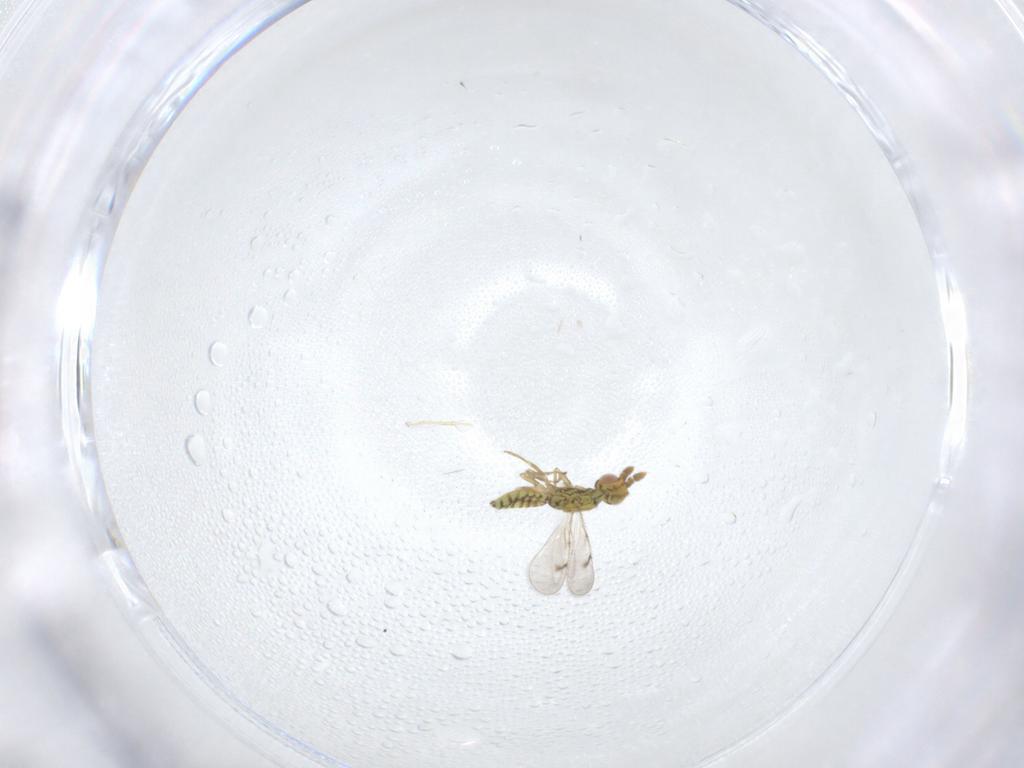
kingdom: Animalia
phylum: Arthropoda
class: Insecta
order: Hymenoptera
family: Eulophidae
